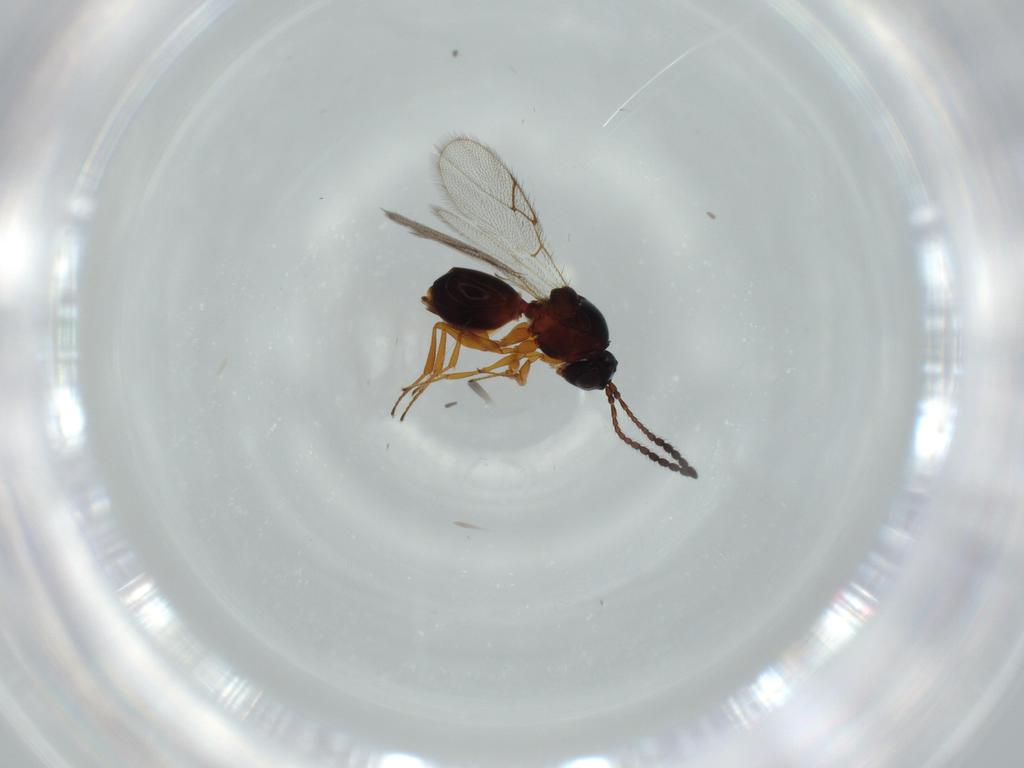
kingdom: Animalia
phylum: Arthropoda
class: Insecta
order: Hymenoptera
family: Figitidae
